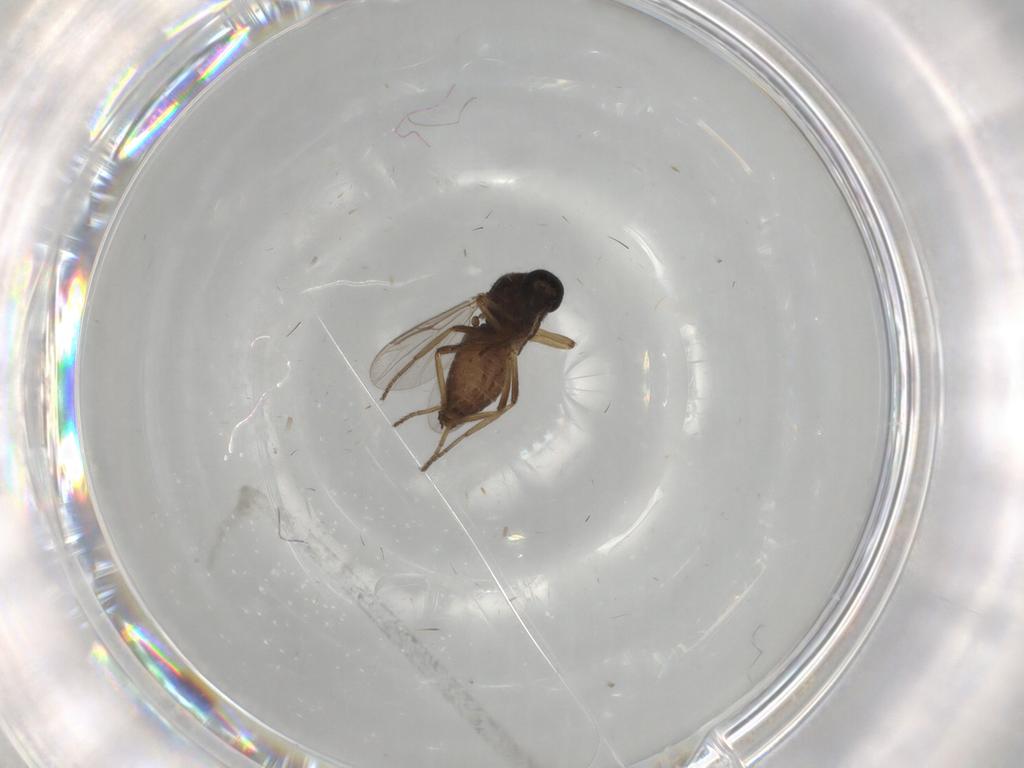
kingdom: Animalia
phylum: Arthropoda
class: Insecta
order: Diptera
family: Ceratopogonidae
